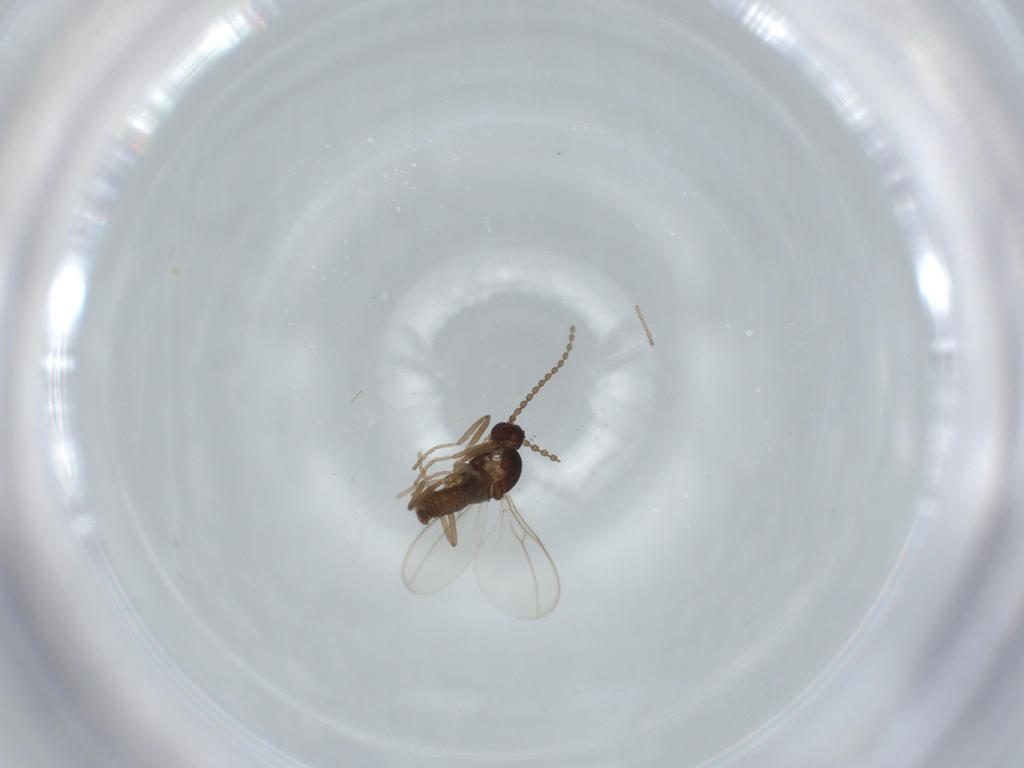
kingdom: Animalia
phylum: Arthropoda
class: Insecta
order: Diptera
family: Cecidomyiidae
